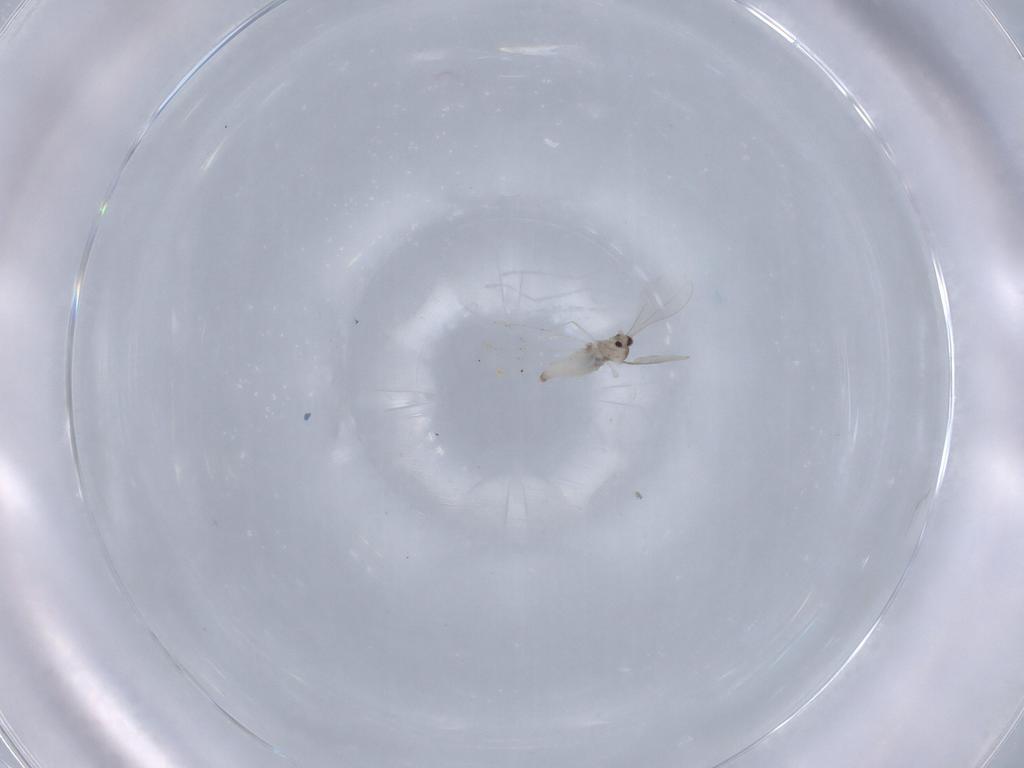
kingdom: Animalia
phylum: Arthropoda
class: Insecta
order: Diptera
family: Cecidomyiidae
